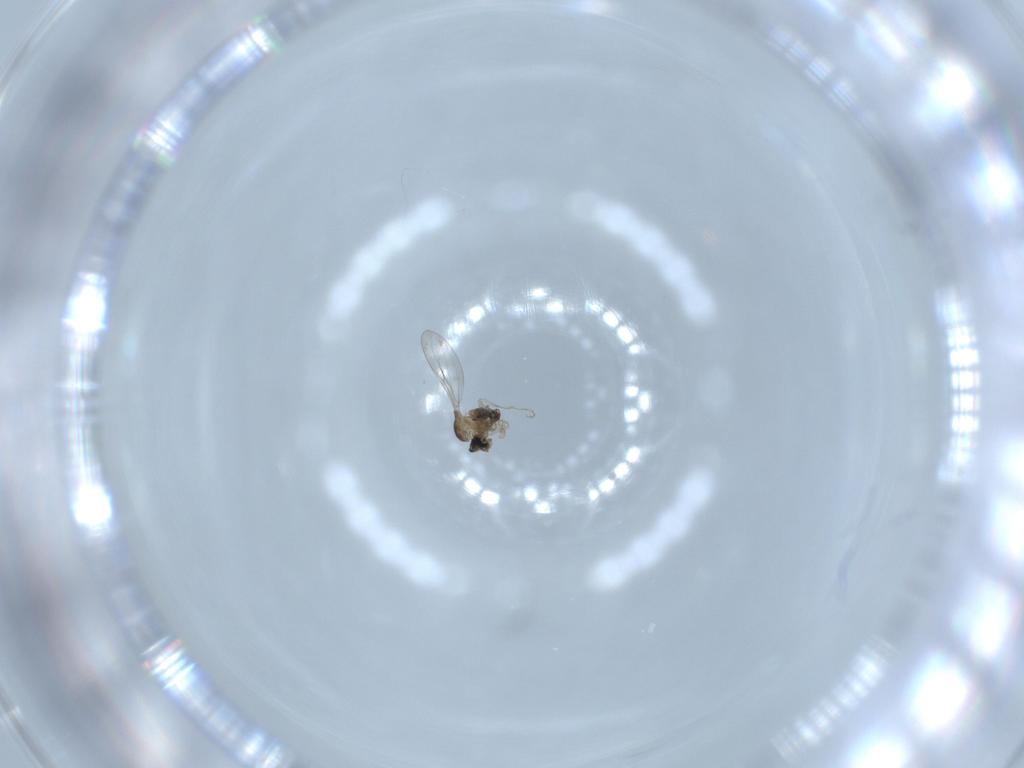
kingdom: Animalia
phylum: Arthropoda
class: Insecta
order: Diptera
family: Cecidomyiidae
